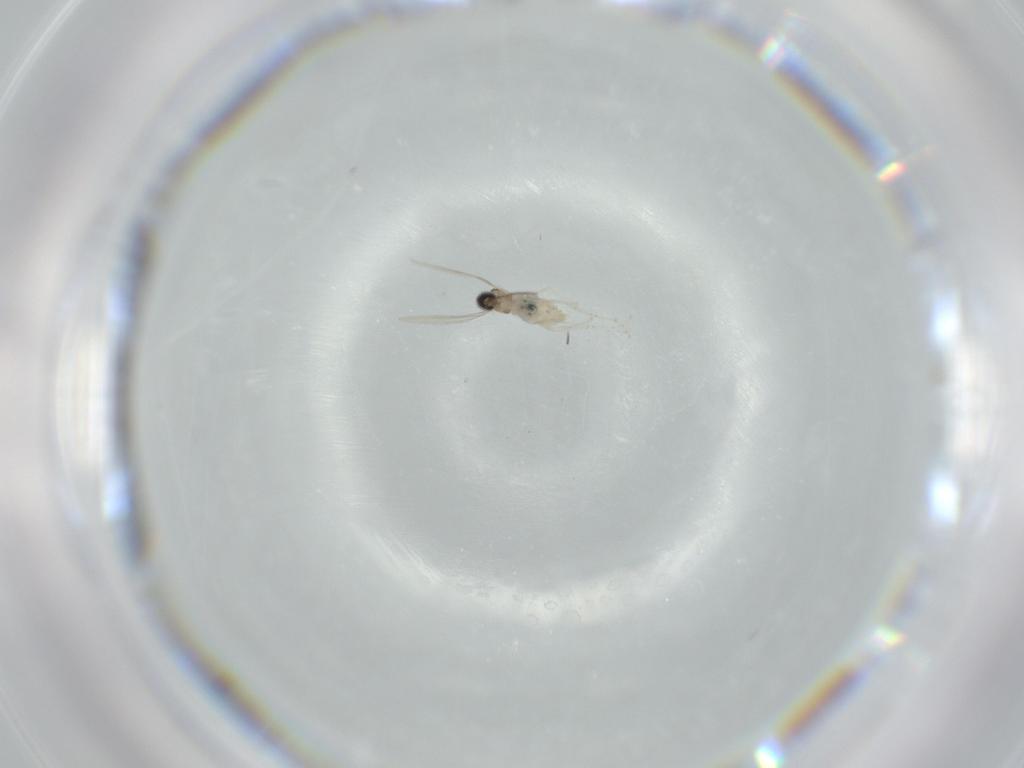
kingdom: Animalia
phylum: Arthropoda
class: Insecta
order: Diptera
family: Cecidomyiidae
